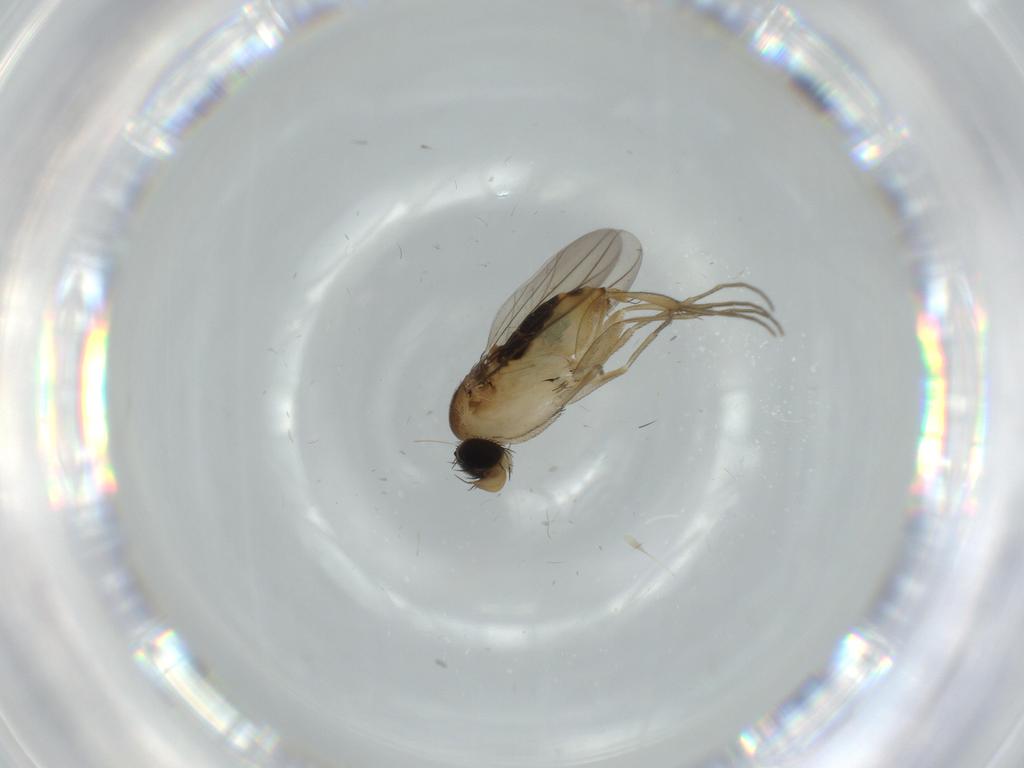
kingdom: Animalia
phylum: Arthropoda
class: Insecta
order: Diptera
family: Phoridae
